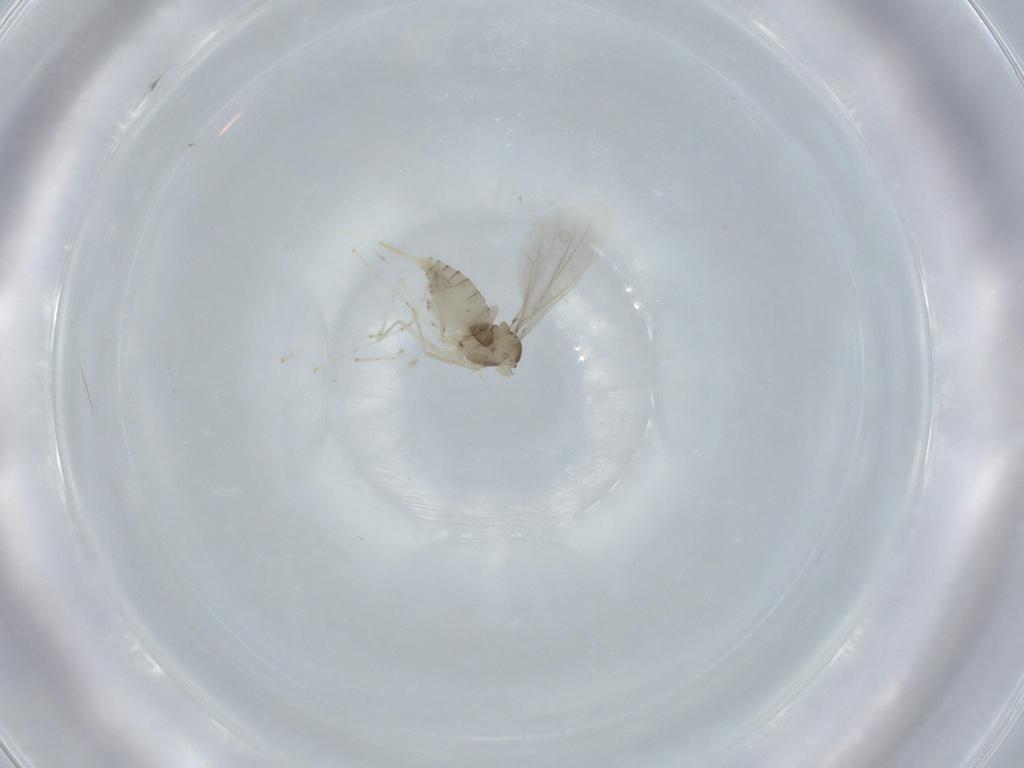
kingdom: Animalia
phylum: Arthropoda
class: Insecta
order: Diptera
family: Cecidomyiidae
